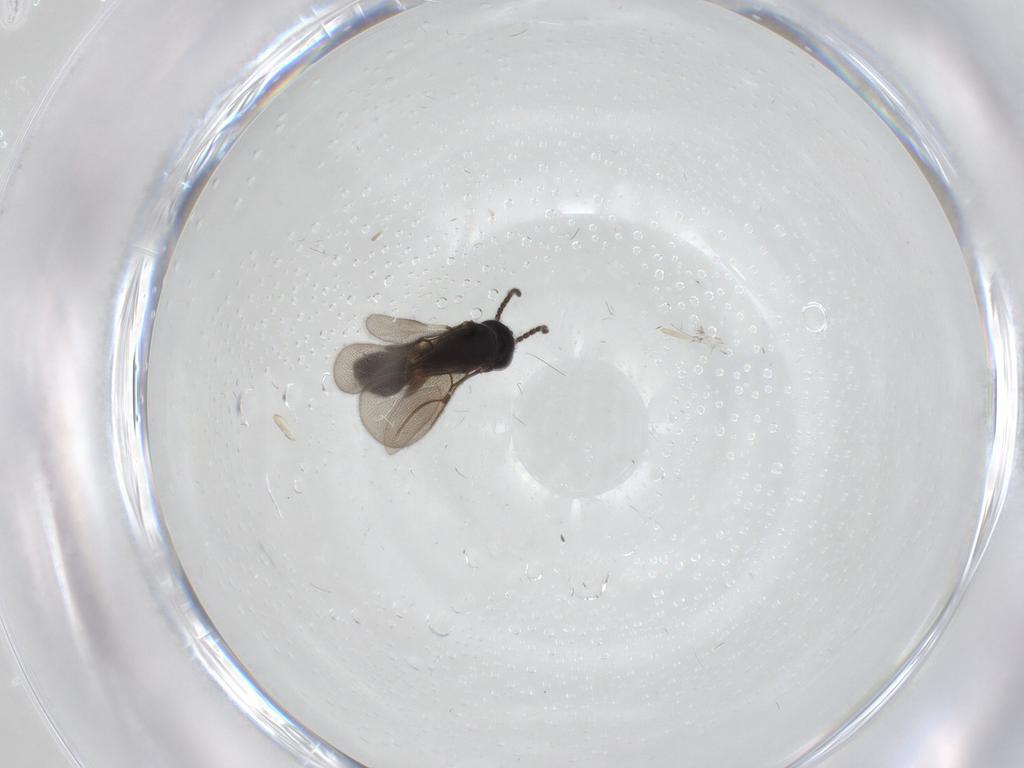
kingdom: Animalia
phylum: Arthropoda
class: Insecta
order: Hymenoptera
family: Bethylidae
